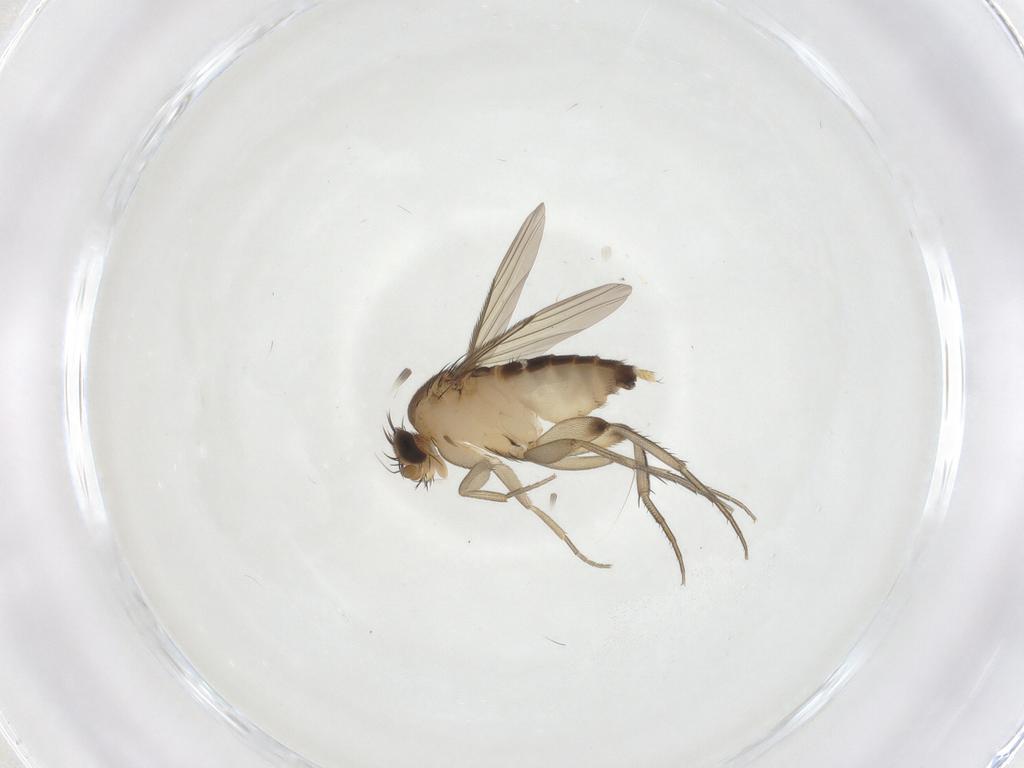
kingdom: Animalia
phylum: Arthropoda
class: Insecta
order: Diptera
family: Phoridae
